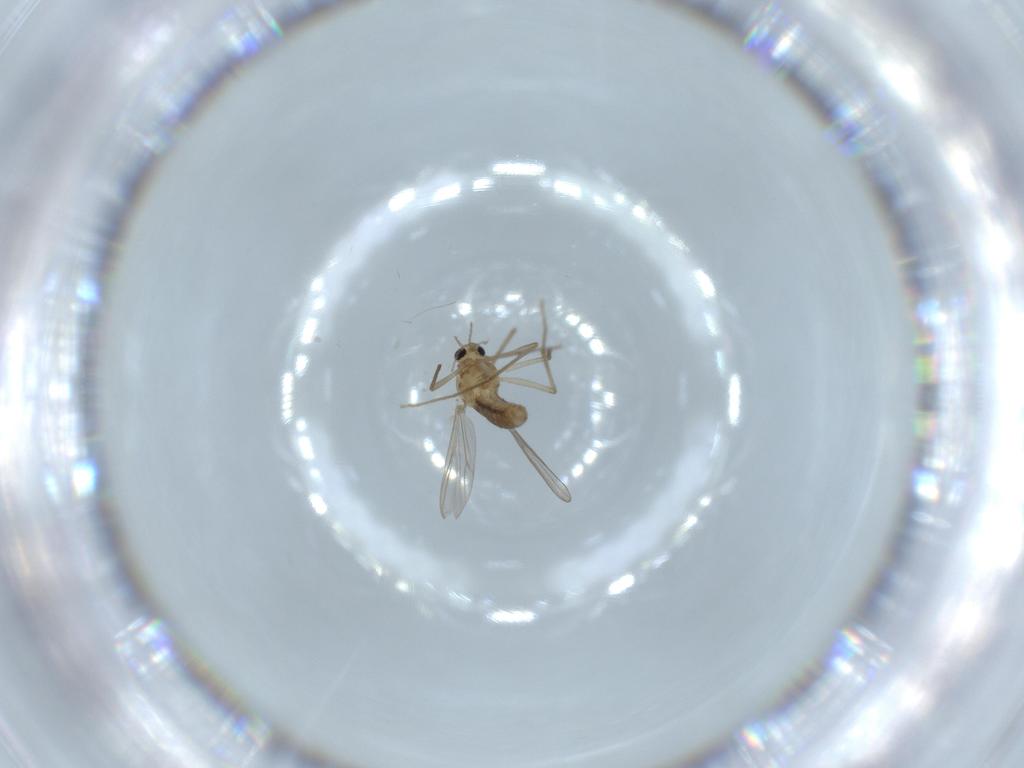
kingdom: Animalia
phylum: Arthropoda
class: Insecta
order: Diptera
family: Chironomidae
